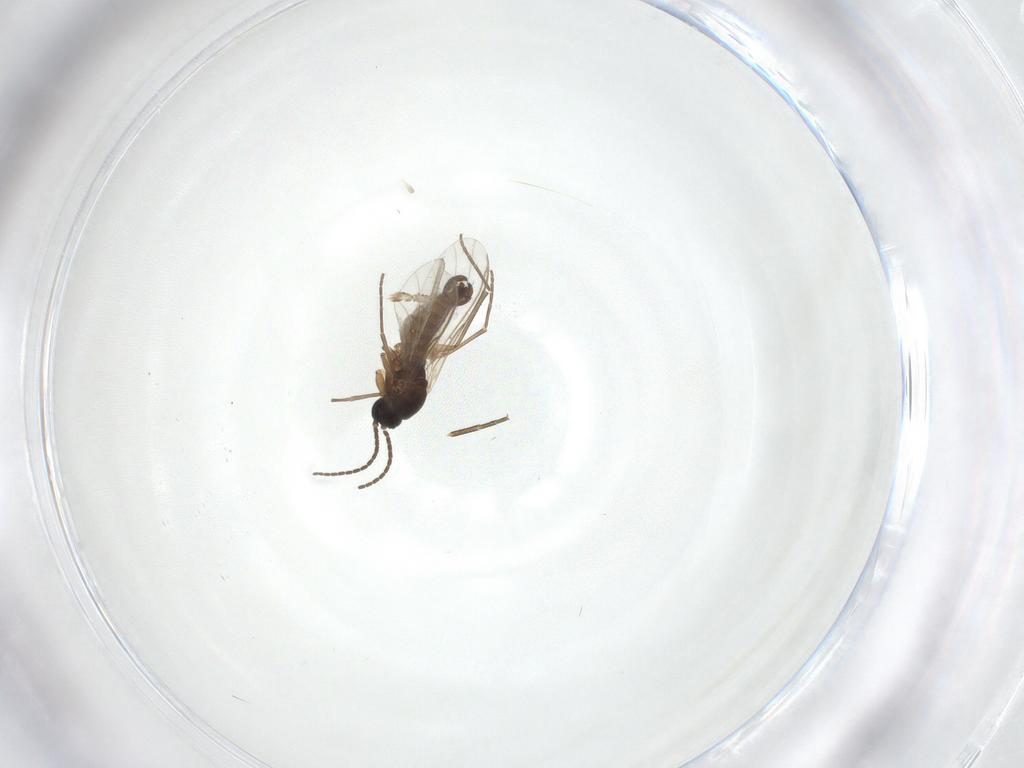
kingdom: Animalia
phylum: Arthropoda
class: Insecta
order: Diptera
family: Sciaridae
